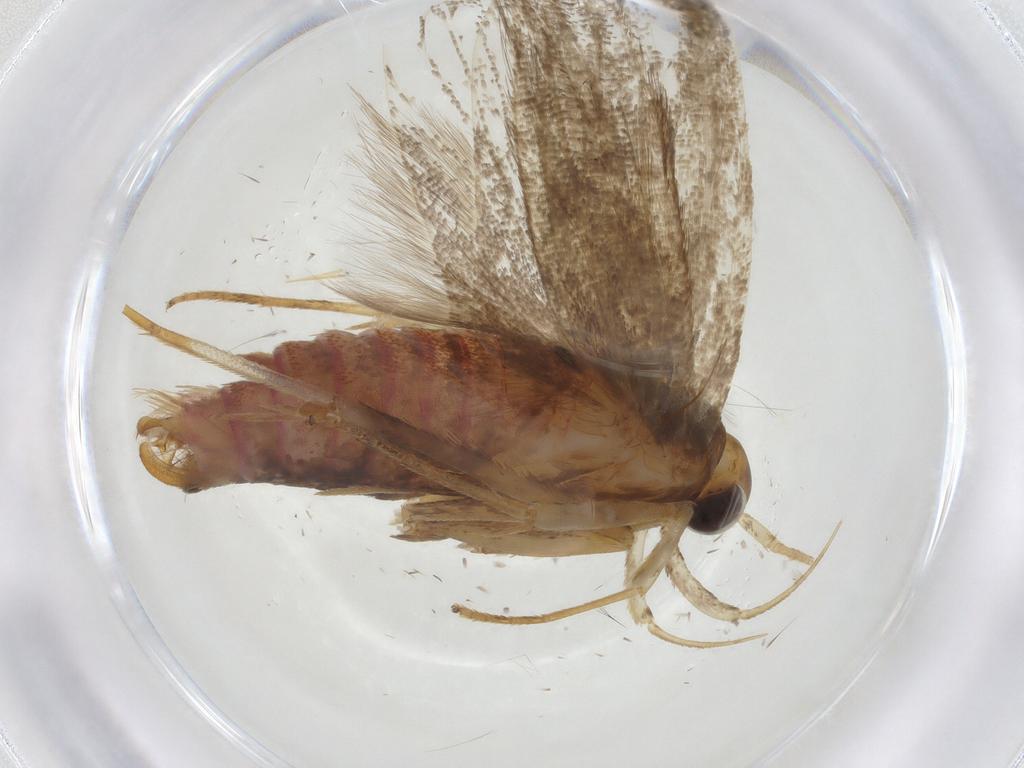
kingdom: Animalia
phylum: Arthropoda
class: Insecta
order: Lepidoptera
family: Lecithoceridae
